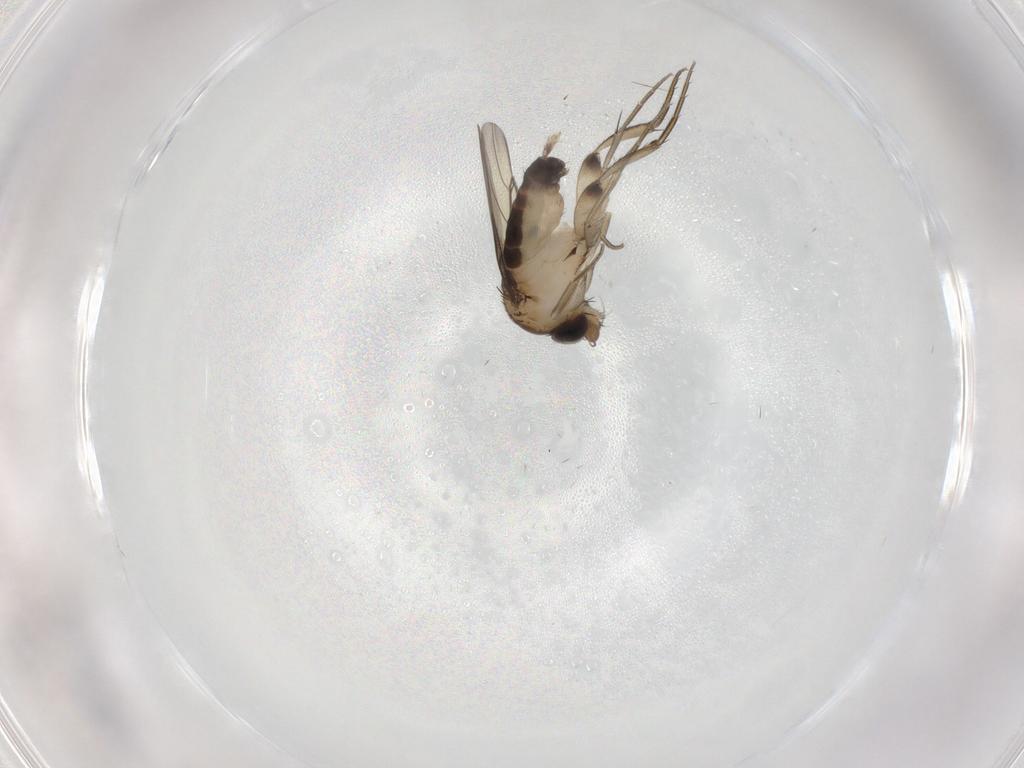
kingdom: Animalia
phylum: Arthropoda
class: Insecta
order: Diptera
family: Phoridae
